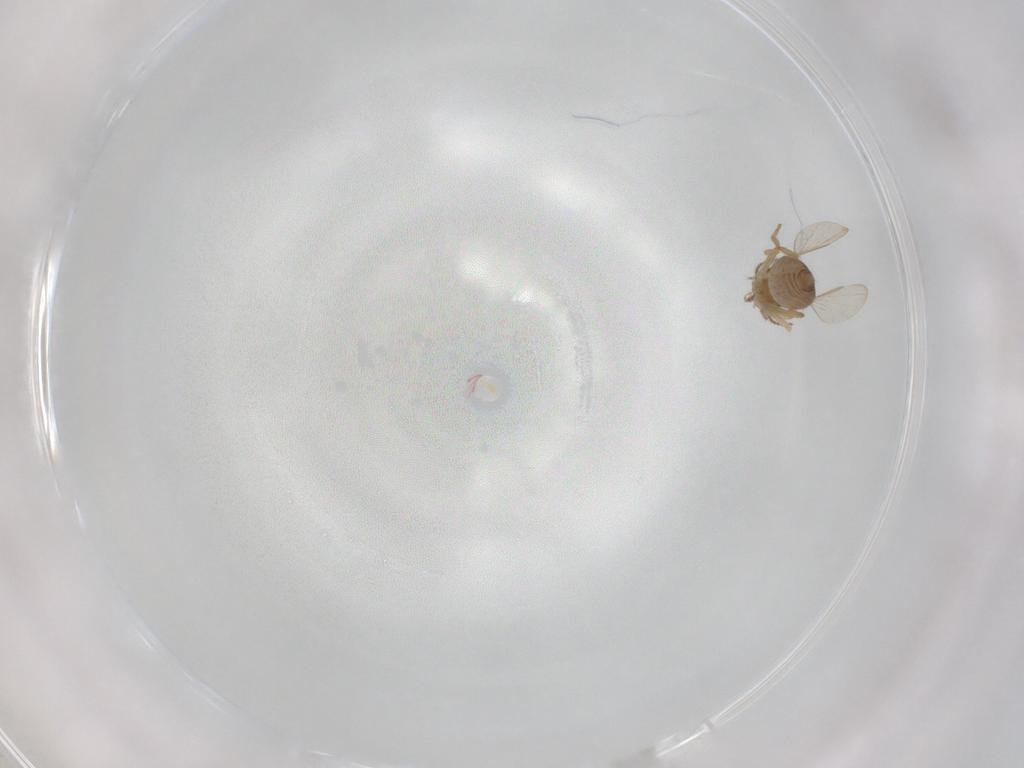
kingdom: Animalia
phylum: Arthropoda
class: Insecta
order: Diptera
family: Ceratopogonidae
